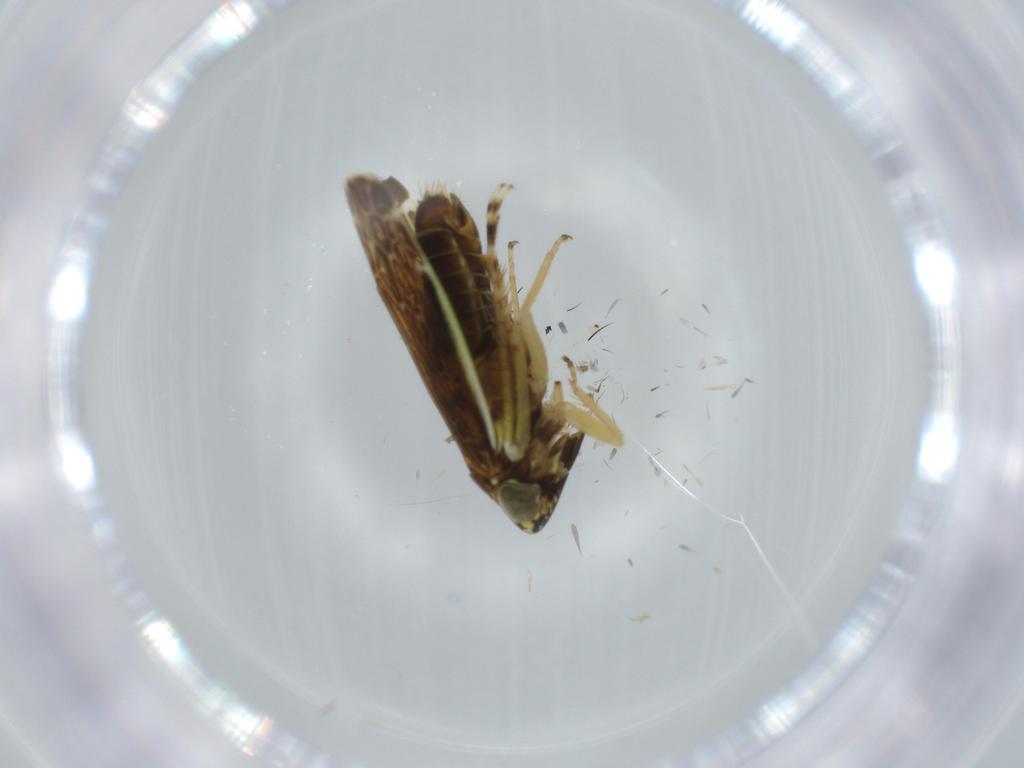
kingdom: Animalia
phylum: Arthropoda
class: Insecta
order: Hemiptera
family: Cicadellidae
